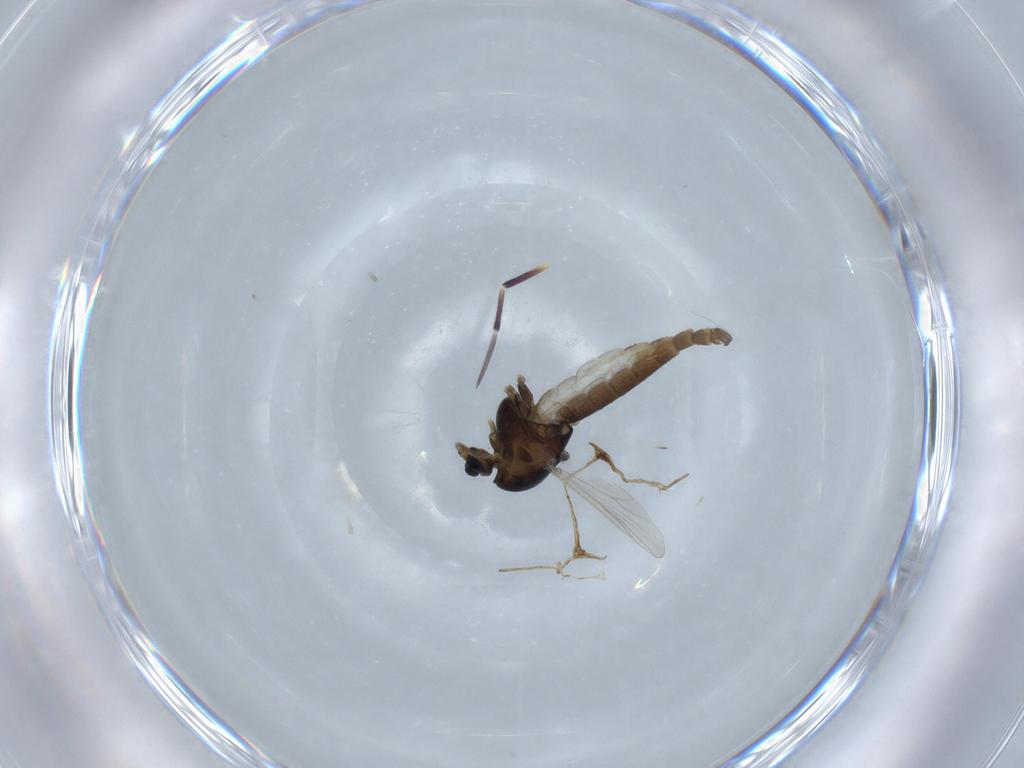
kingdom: Animalia
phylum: Arthropoda
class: Insecta
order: Diptera
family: Chironomidae
